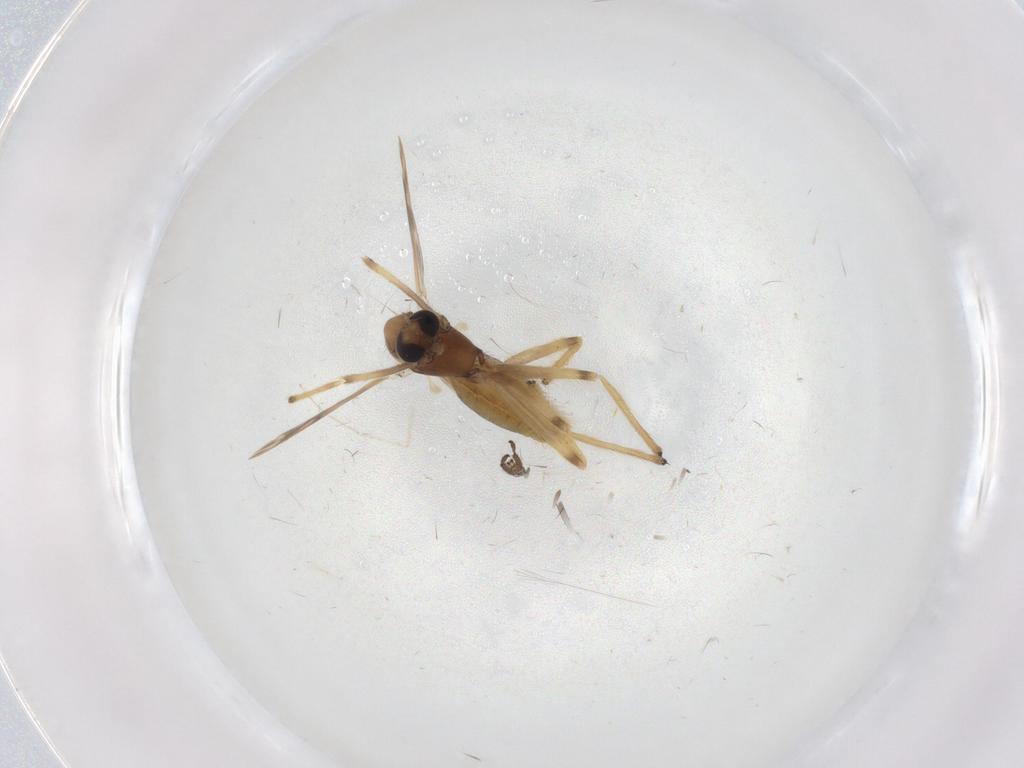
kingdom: Animalia
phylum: Arthropoda
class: Insecta
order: Diptera
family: Chironomidae
